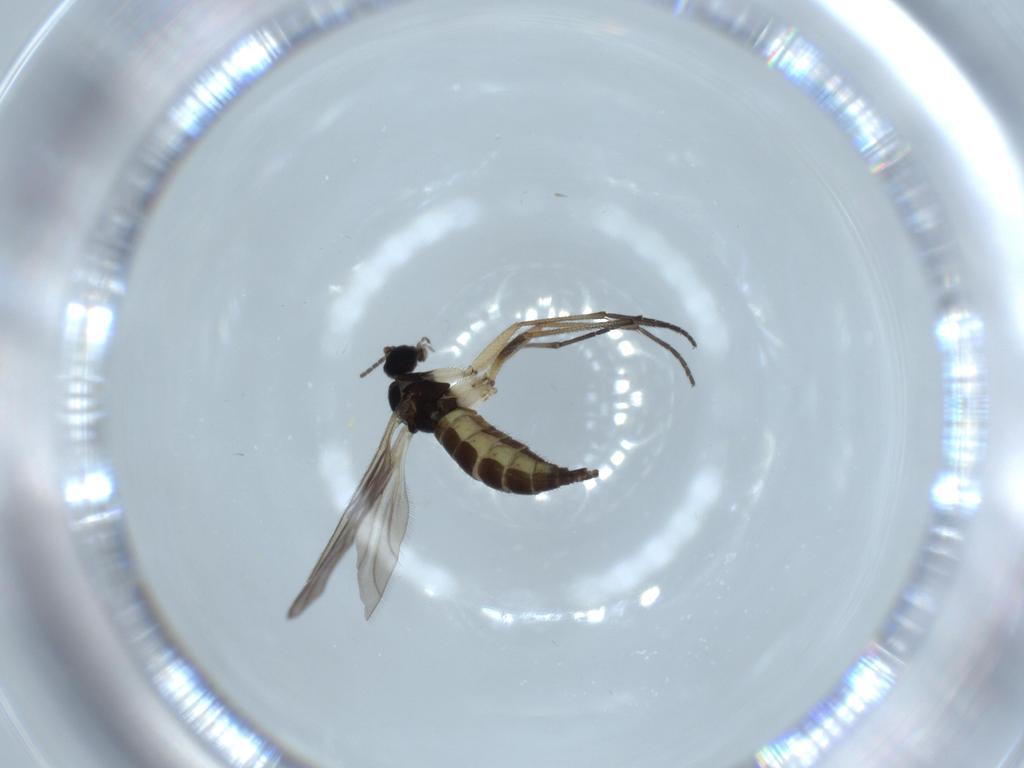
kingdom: Animalia
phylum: Arthropoda
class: Insecta
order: Diptera
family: Sciaridae
